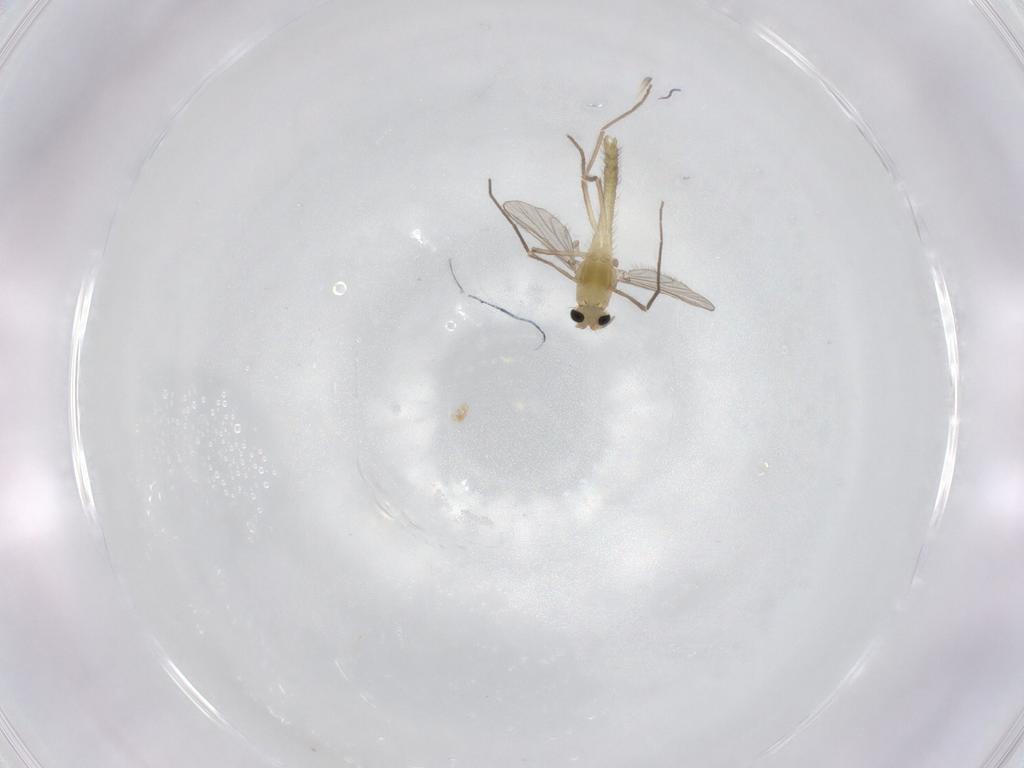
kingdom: Animalia
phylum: Arthropoda
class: Insecta
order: Diptera
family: Chironomidae
